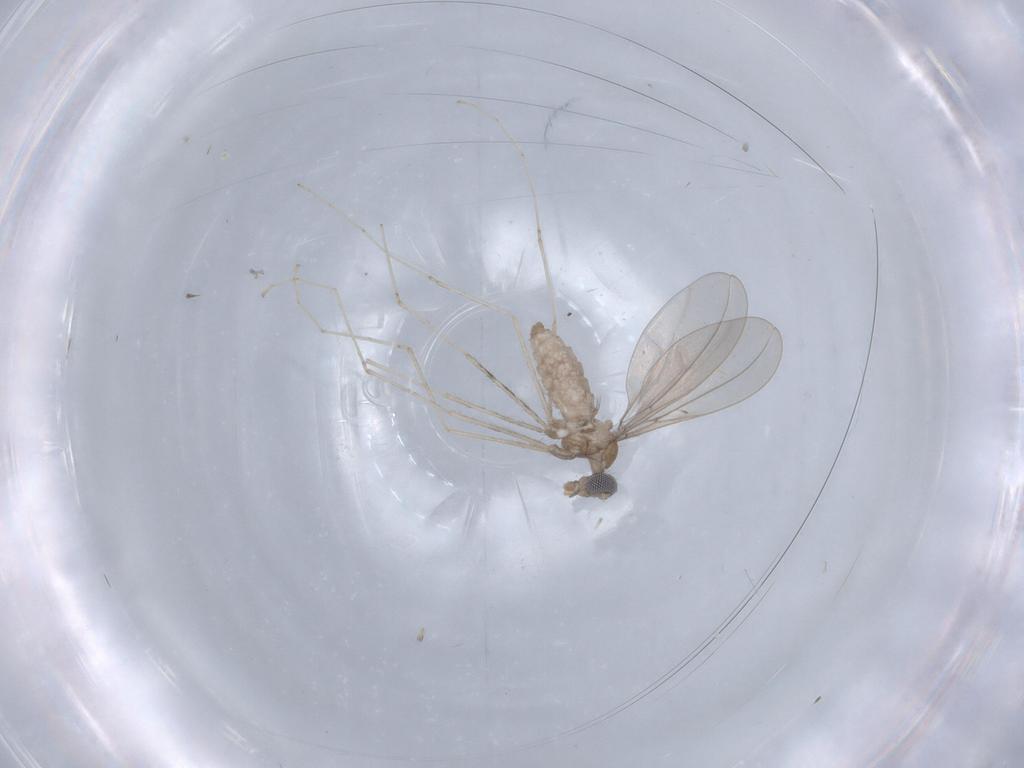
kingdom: Animalia
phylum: Arthropoda
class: Insecta
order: Diptera
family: Cecidomyiidae
